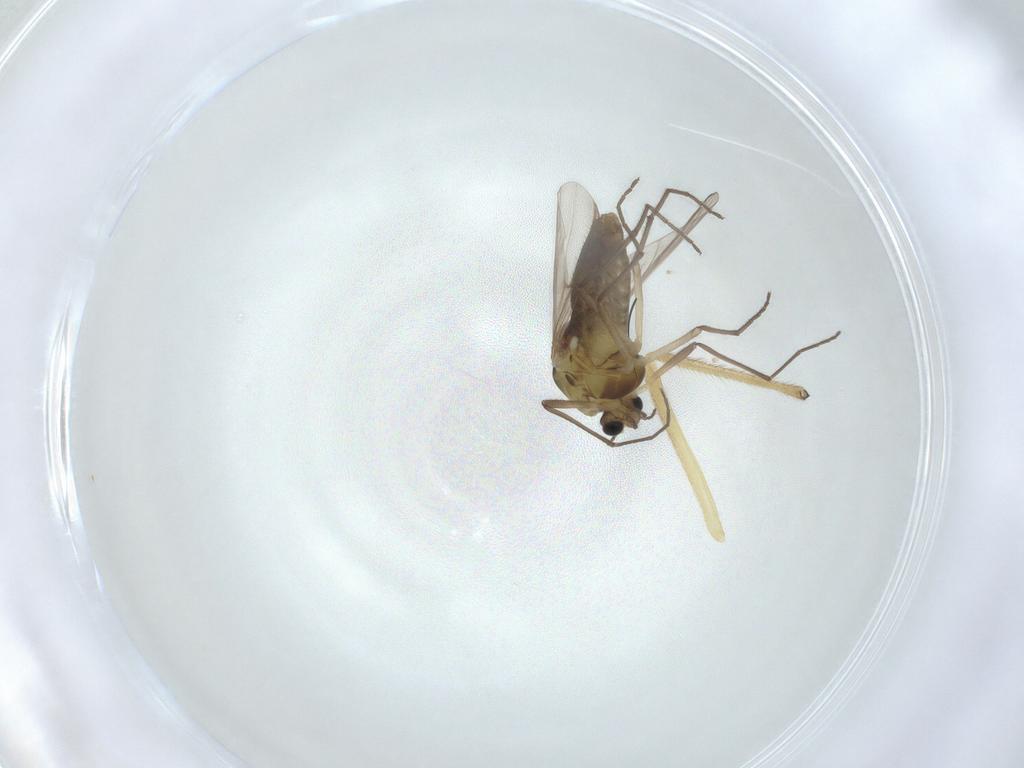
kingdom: Animalia
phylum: Arthropoda
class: Insecta
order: Diptera
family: Chironomidae
